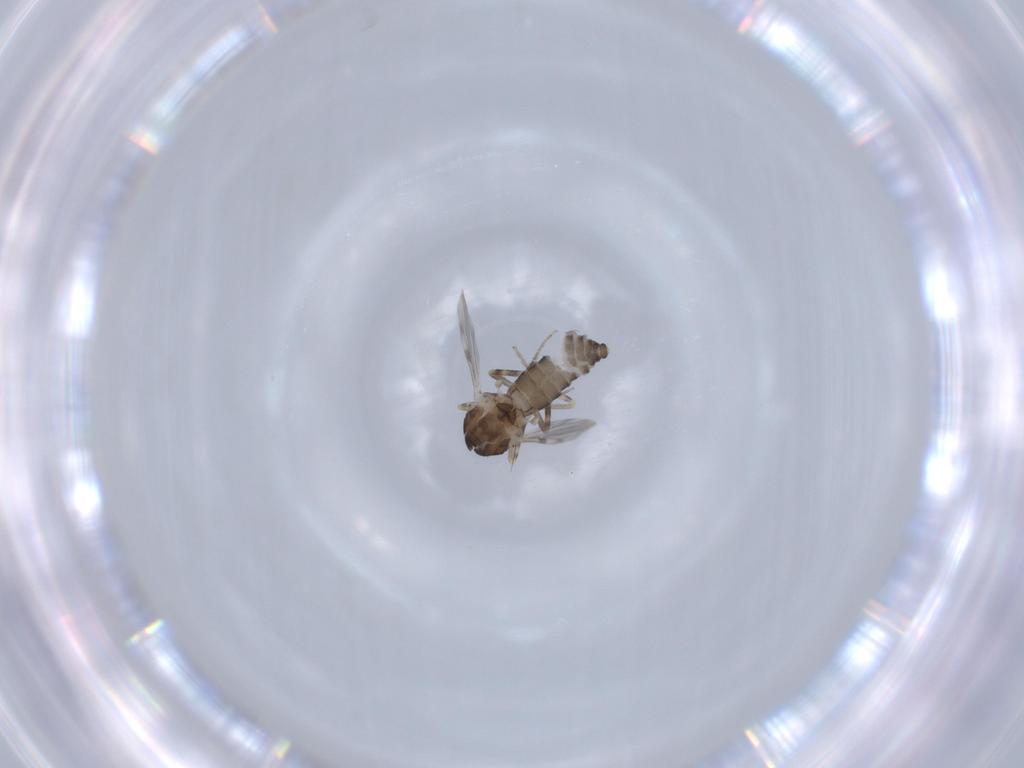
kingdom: Animalia
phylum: Arthropoda
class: Insecta
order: Diptera
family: Ceratopogonidae
